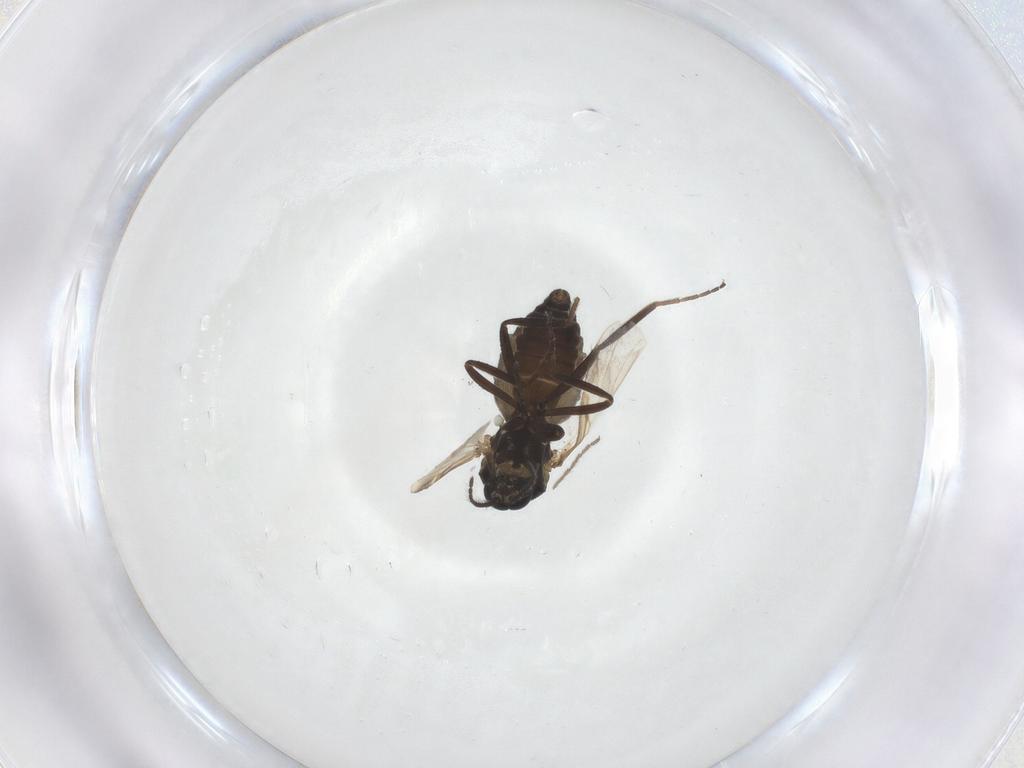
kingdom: Animalia
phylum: Arthropoda
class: Insecta
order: Diptera
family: Ceratopogonidae
